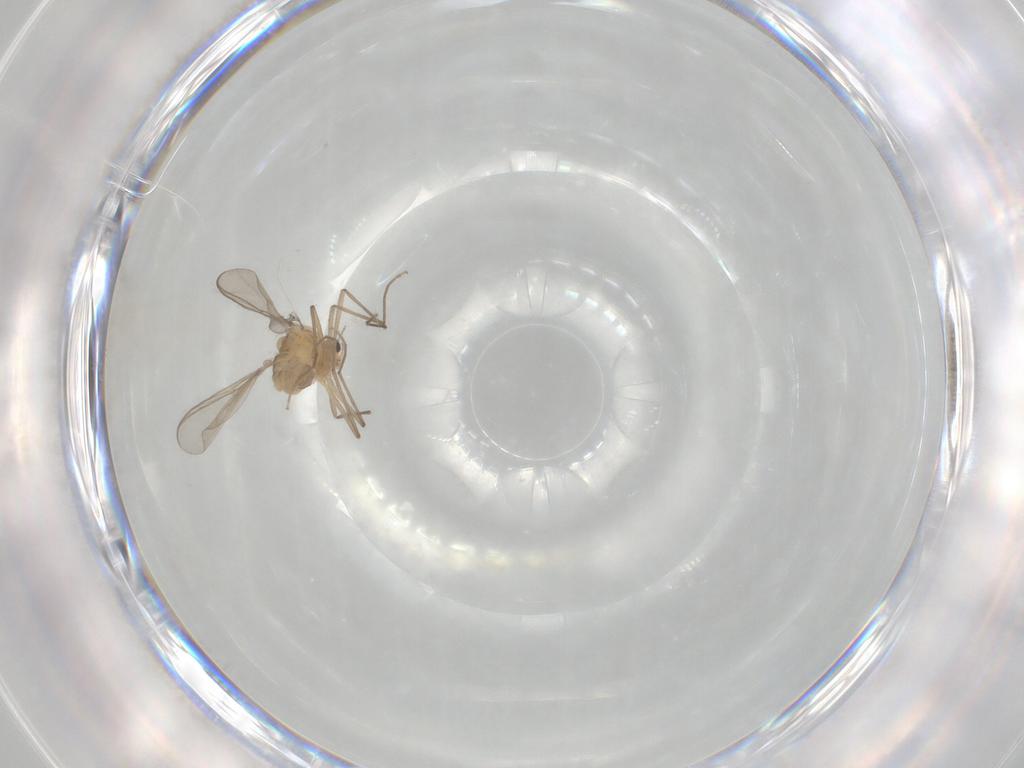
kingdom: Animalia
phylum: Arthropoda
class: Insecta
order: Diptera
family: Chironomidae
